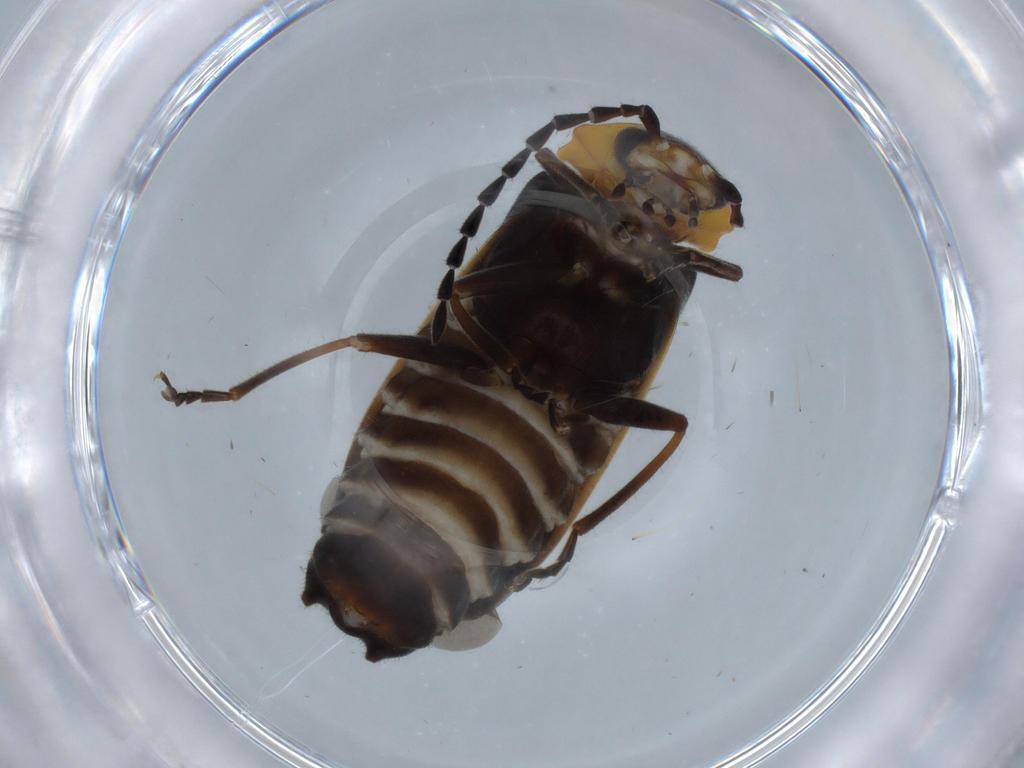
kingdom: Animalia
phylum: Arthropoda
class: Insecta
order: Coleoptera
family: Cantharidae
